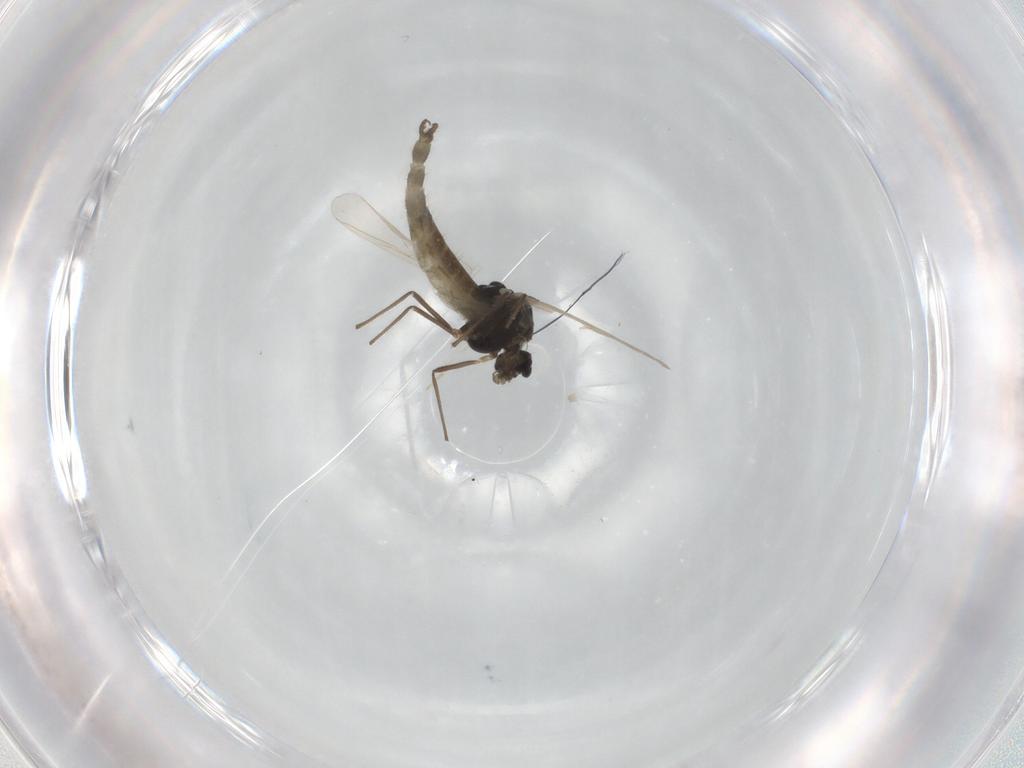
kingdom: Animalia
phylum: Arthropoda
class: Insecta
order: Diptera
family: Chironomidae
